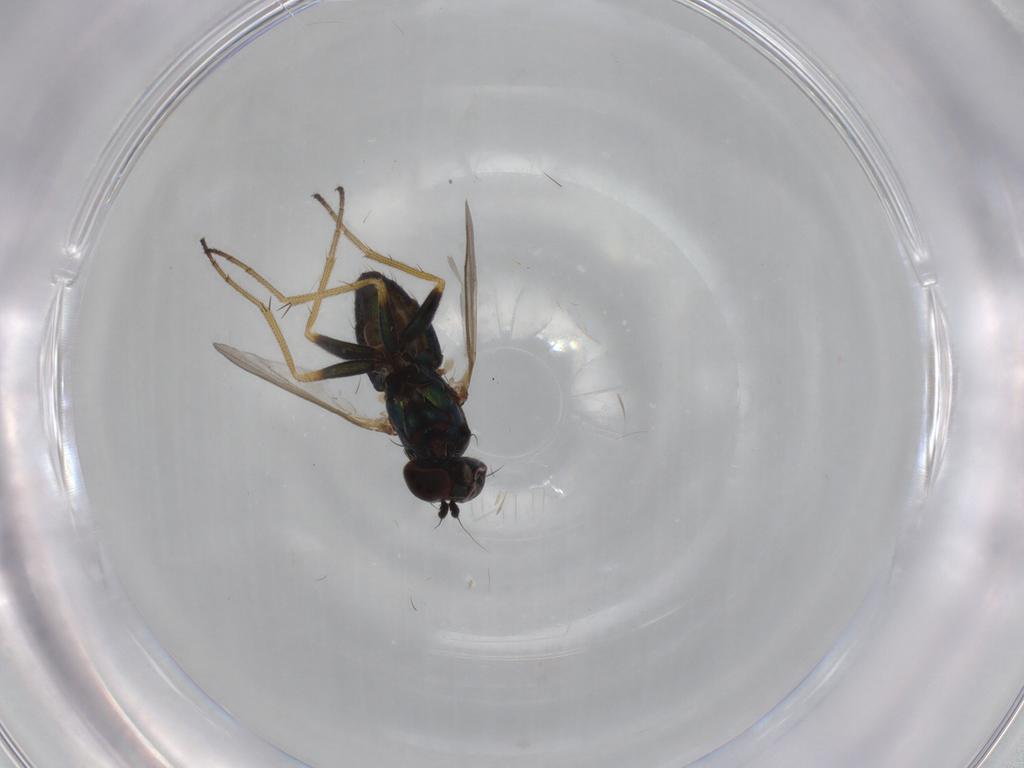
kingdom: Animalia
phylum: Arthropoda
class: Insecta
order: Diptera
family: Dolichopodidae
